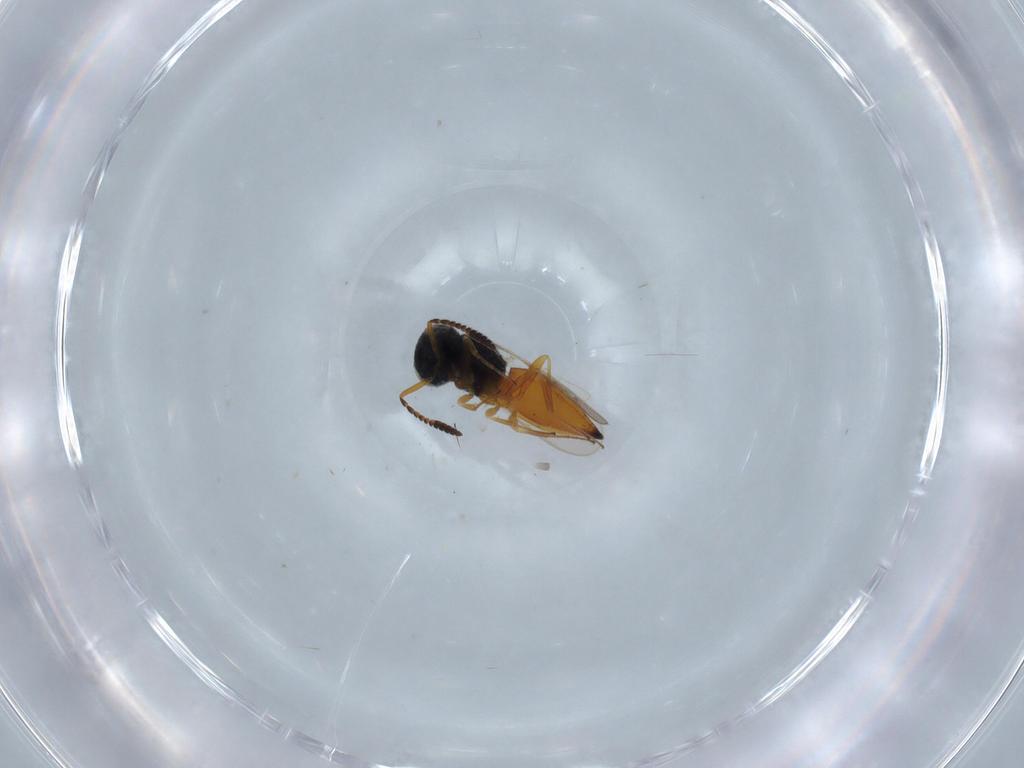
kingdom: Animalia
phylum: Arthropoda
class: Insecta
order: Hymenoptera
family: Scelionidae
